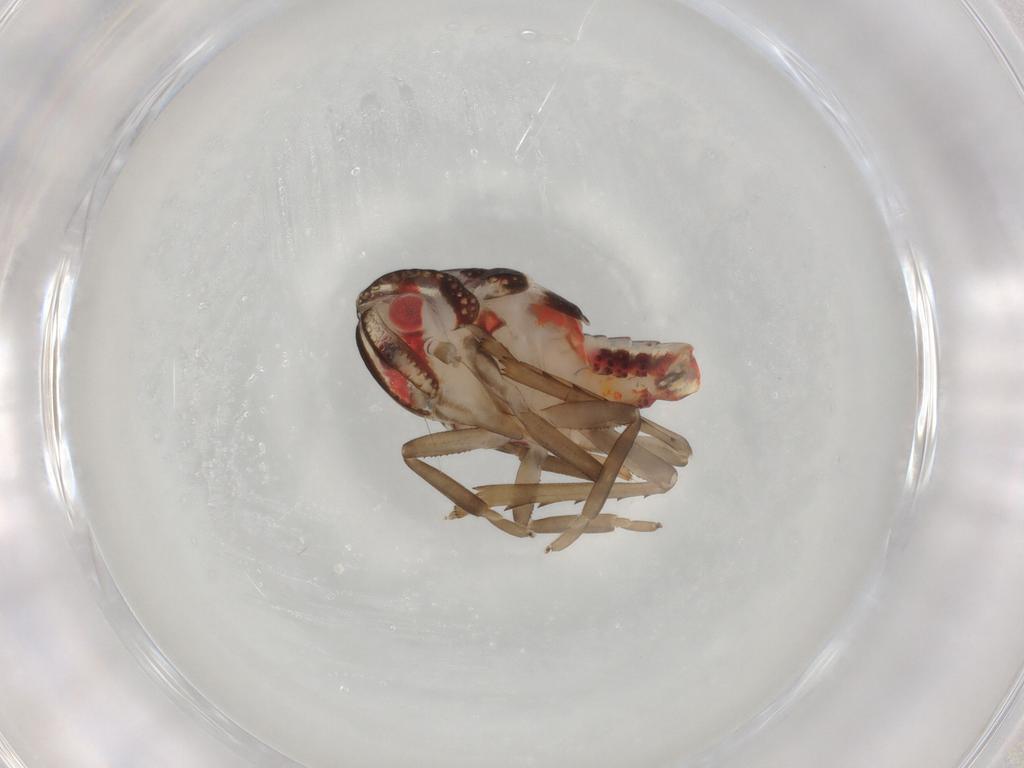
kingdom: Animalia
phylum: Arthropoda
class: Insecta
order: Hemiptera
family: Nogodinidae
